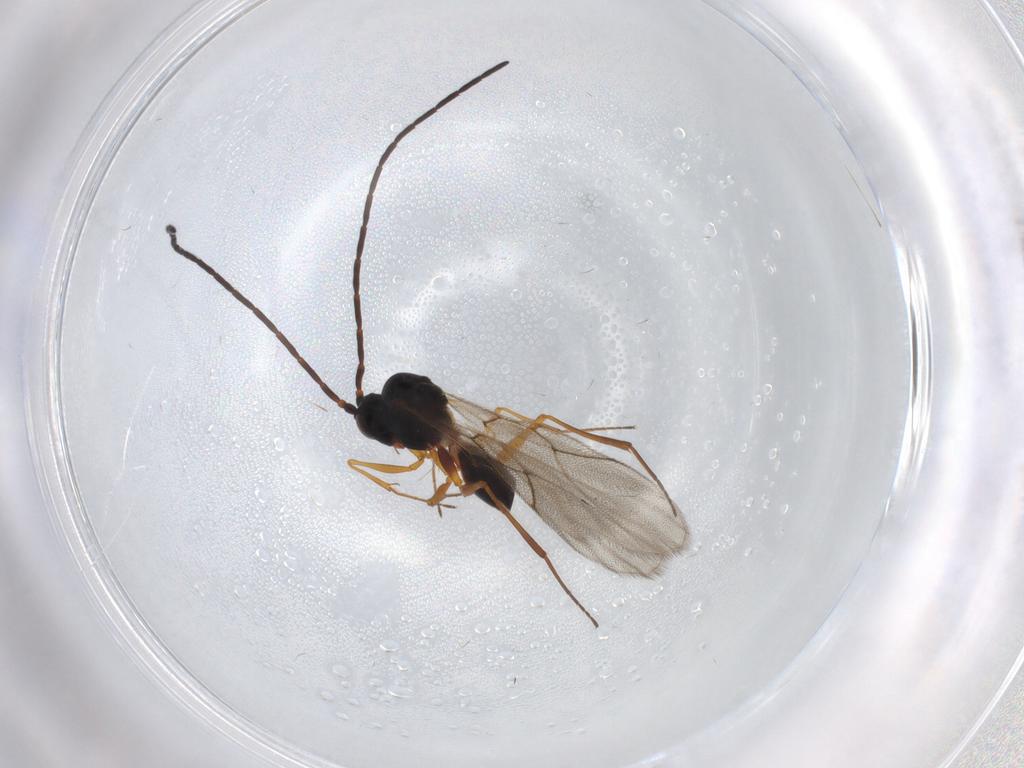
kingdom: Animalia
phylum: Arthropoda
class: Insecta
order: Hymenoptera
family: Figitidae
